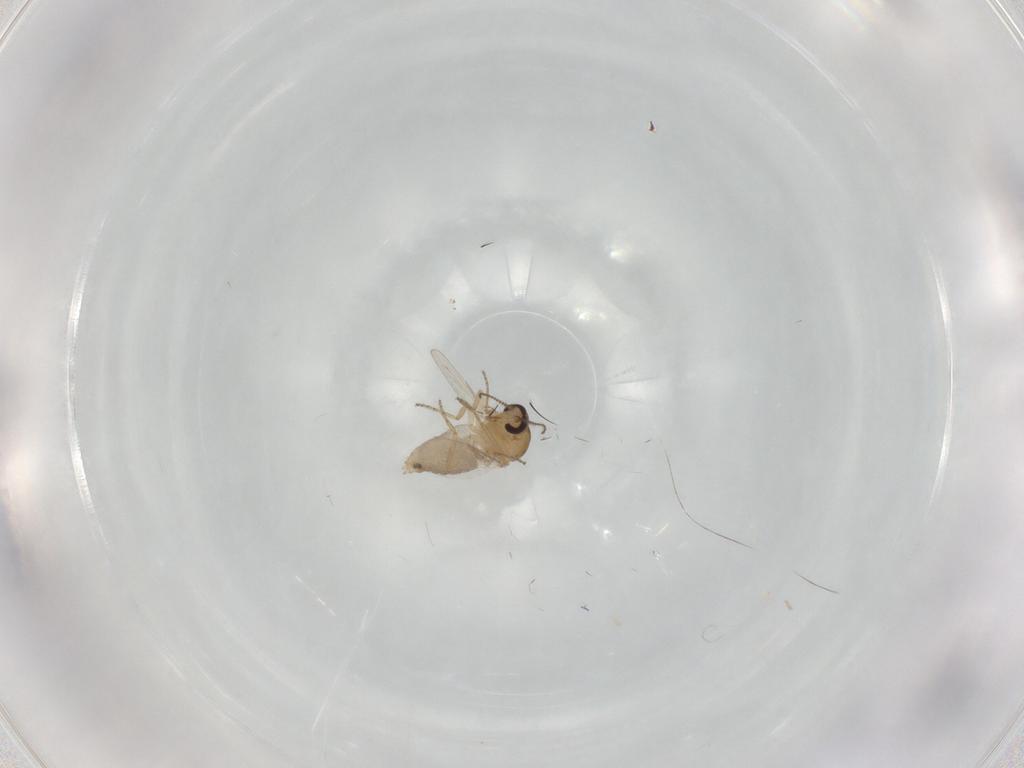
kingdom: Animalia
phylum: Arthropoda
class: Insecta
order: Diptera
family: Ceratopogonidae
